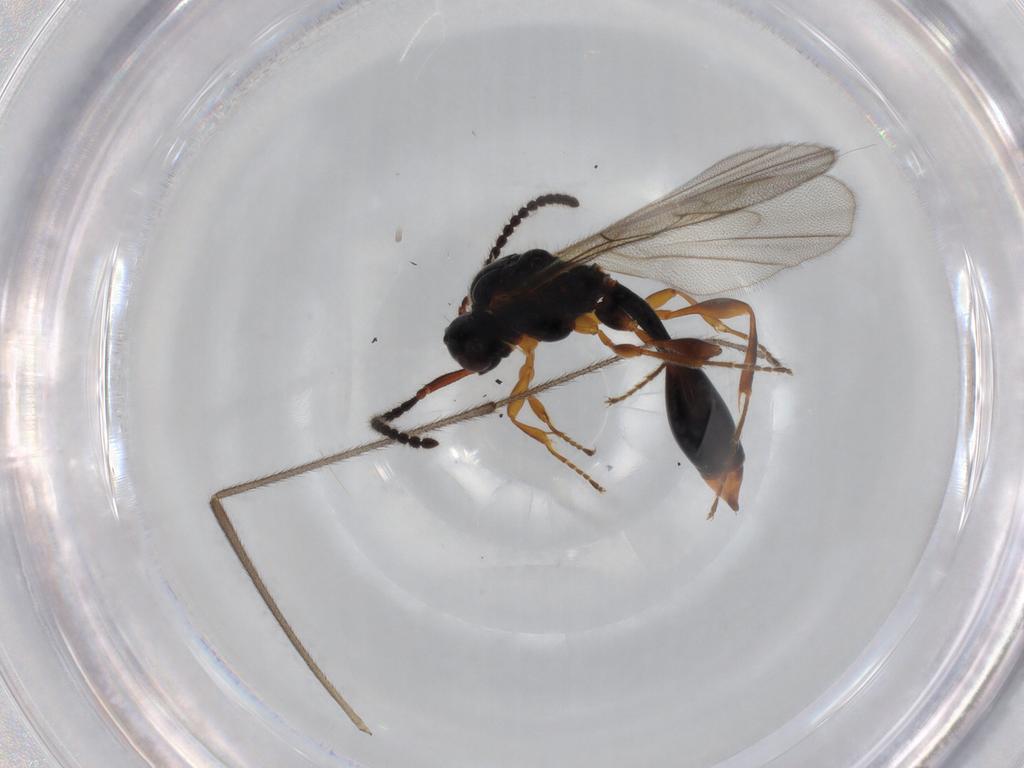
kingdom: Animalia
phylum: Arthropoda
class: Insecta
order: Hymenoptera
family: Diapriidae
